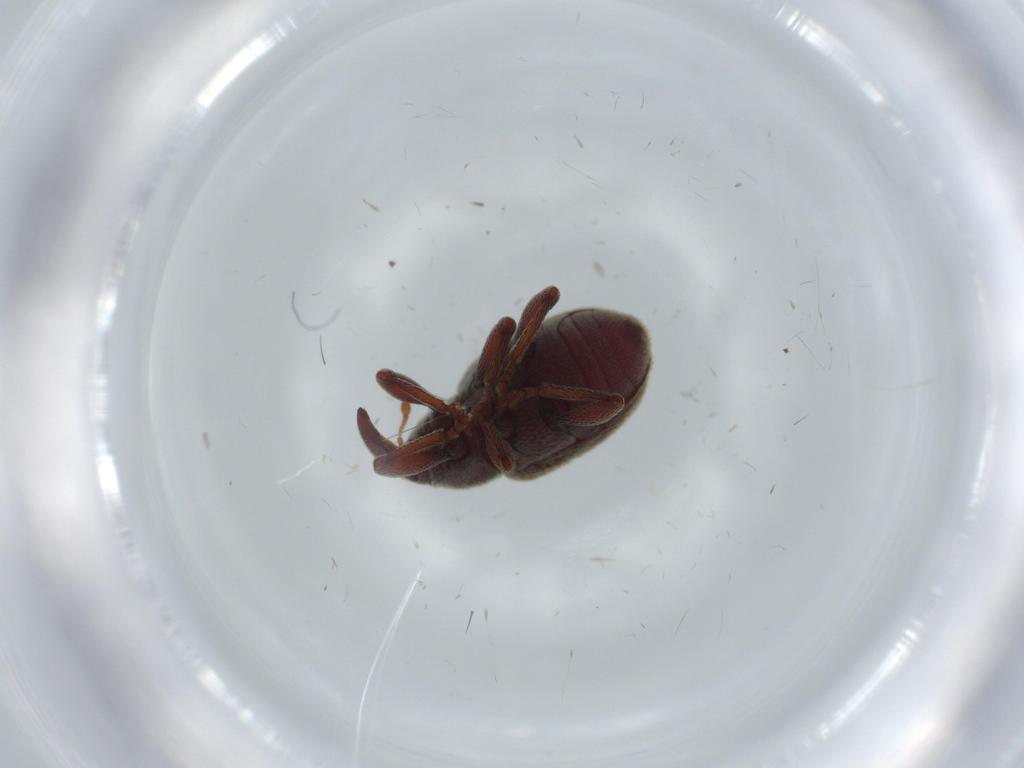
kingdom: Animalia
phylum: Arthropoda
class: Insecta
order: Coleoptera
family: Curculionidae
